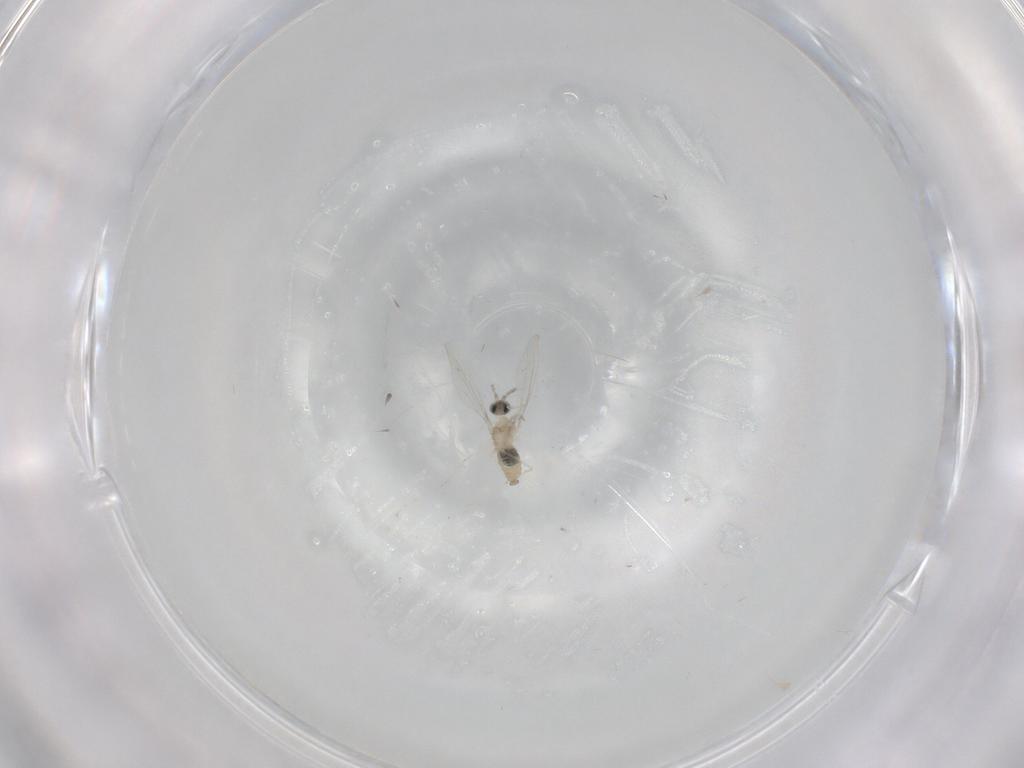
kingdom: Animalia
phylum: Arthropoda
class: Insecta
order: Diptera
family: Cecidomyiidae
